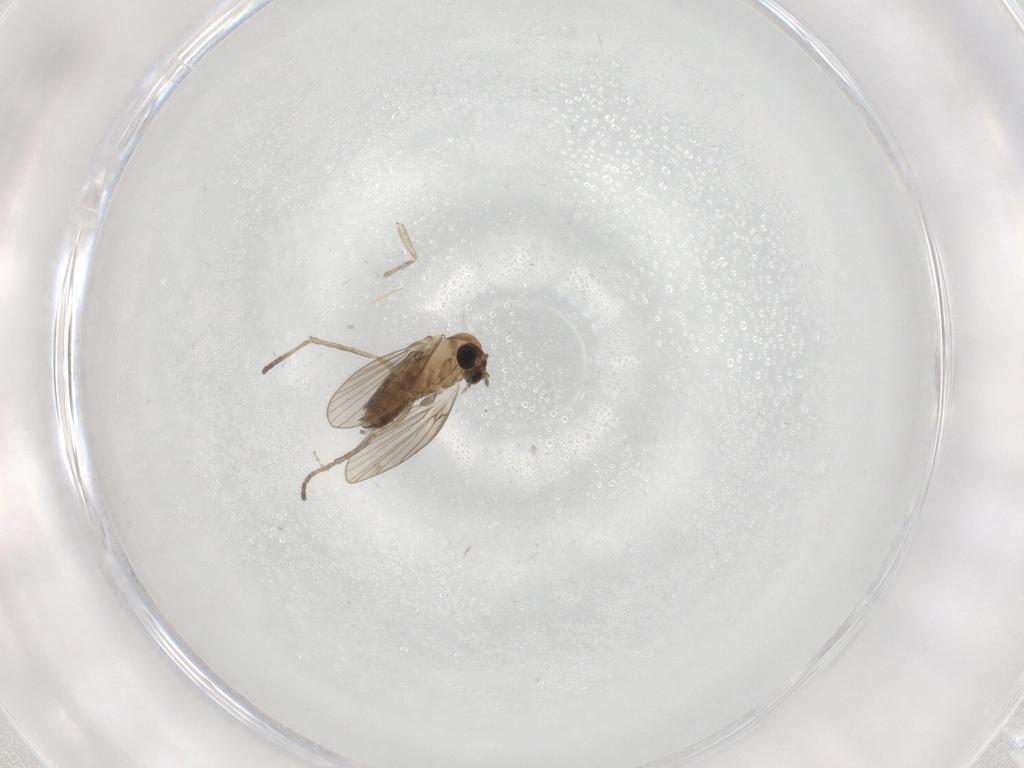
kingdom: Animalia
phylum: Arthropoda
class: Insecta
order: Diptera
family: Psychodidae
